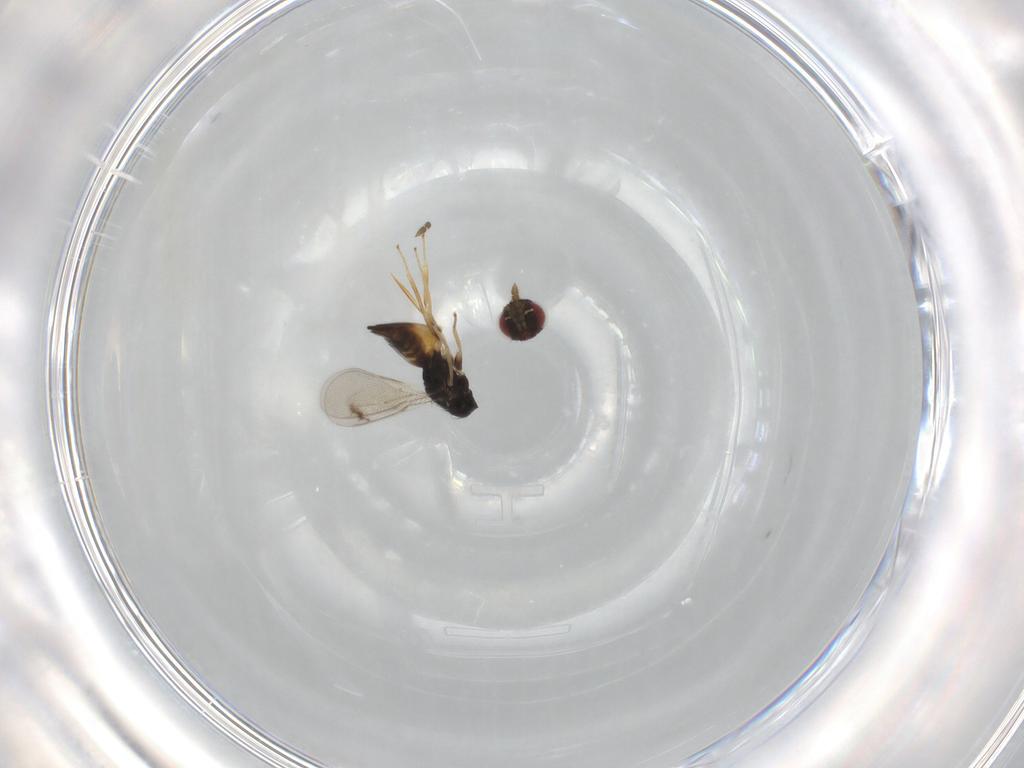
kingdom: Animalia
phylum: Arthropoda
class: Insecta
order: Hymenoptera
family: Eulophidae
